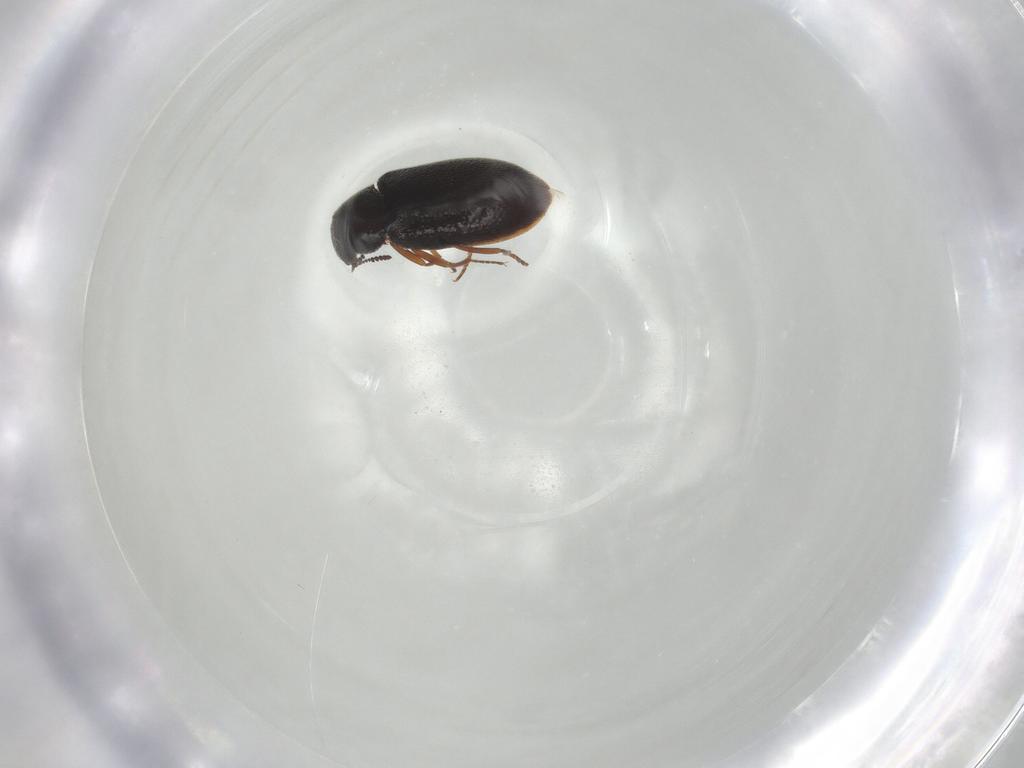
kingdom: Animalia
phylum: Arthropoda
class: Insecta
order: Coleoptera
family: Rhadalidae
